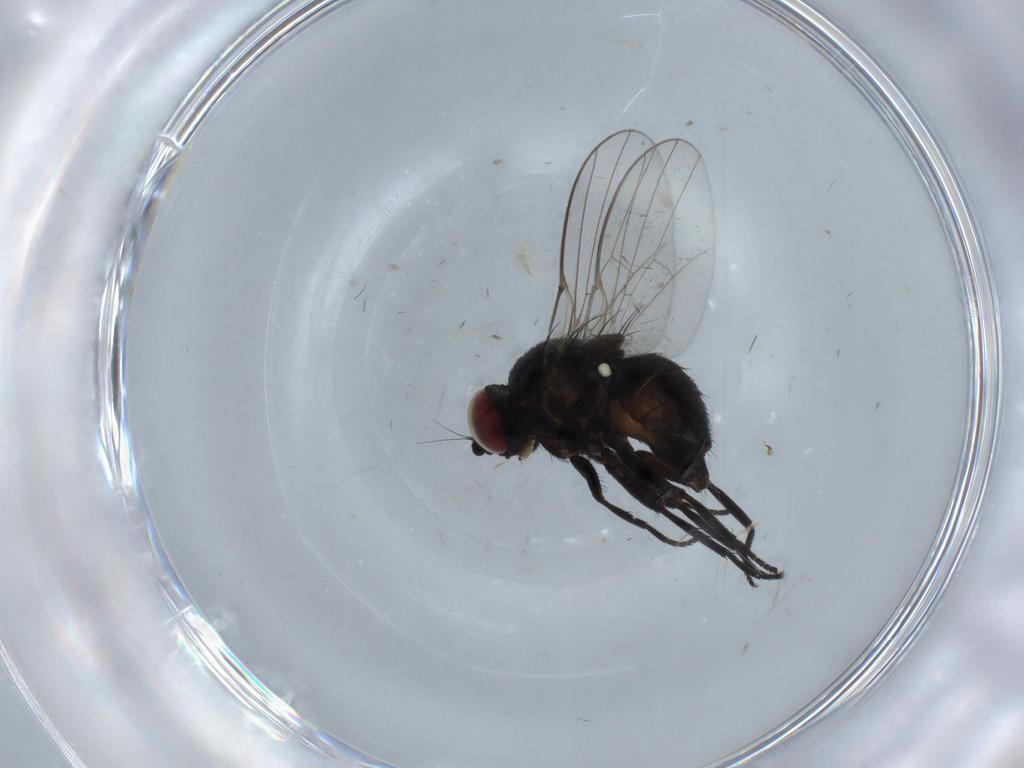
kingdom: Animalia
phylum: Arthropoda
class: Insecta
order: Diptera
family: Agromyzidae
